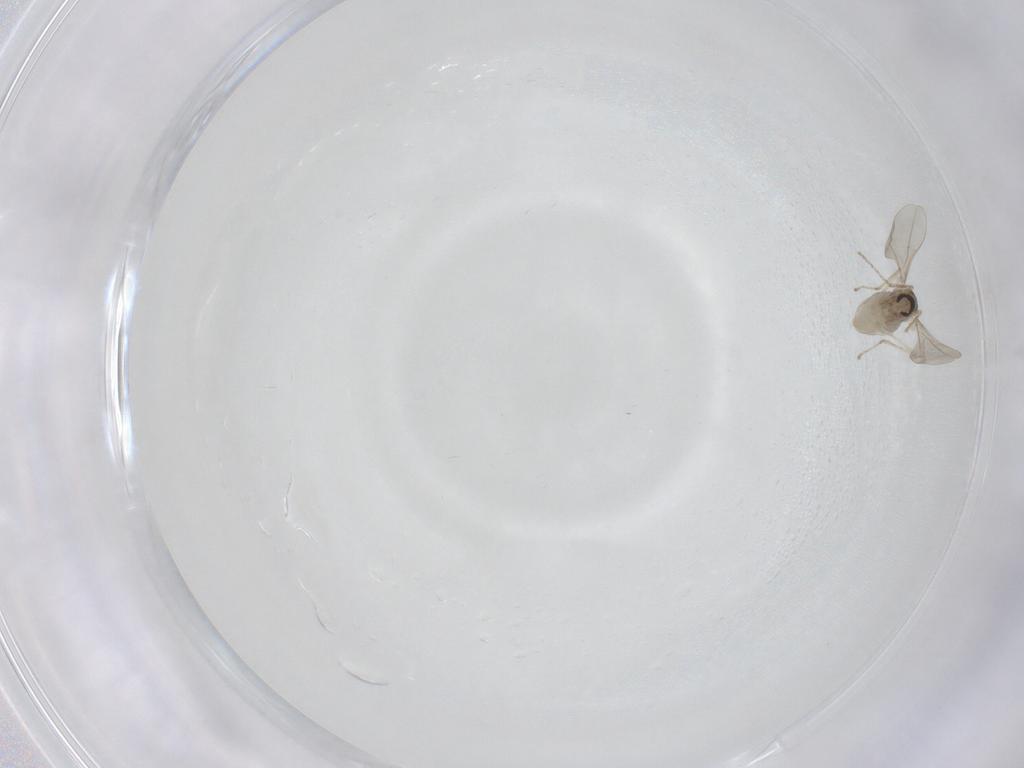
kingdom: Animalia
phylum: Arthropoda
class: Insecta
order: Diptera
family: Cecidomyiidae
